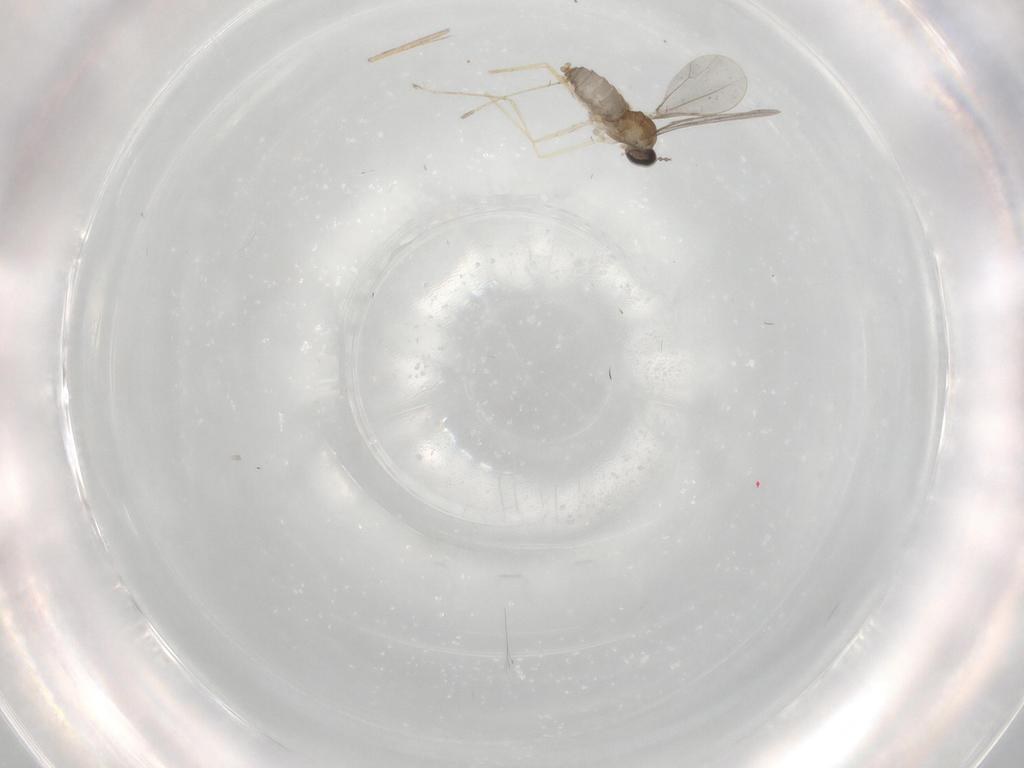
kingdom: Animalia
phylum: Arthropoda
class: Insecta
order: Diptera
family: Cecidomyiidae
